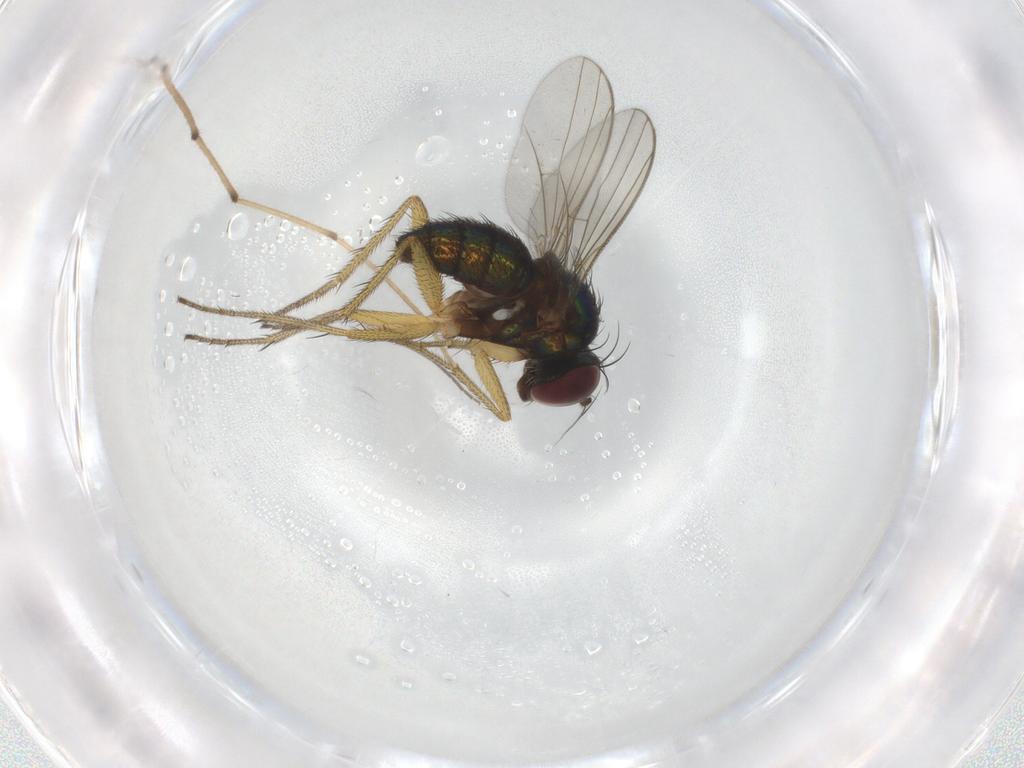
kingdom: Animalia
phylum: Arthropoda
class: Insecta
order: Diptera
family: Chironomidae
